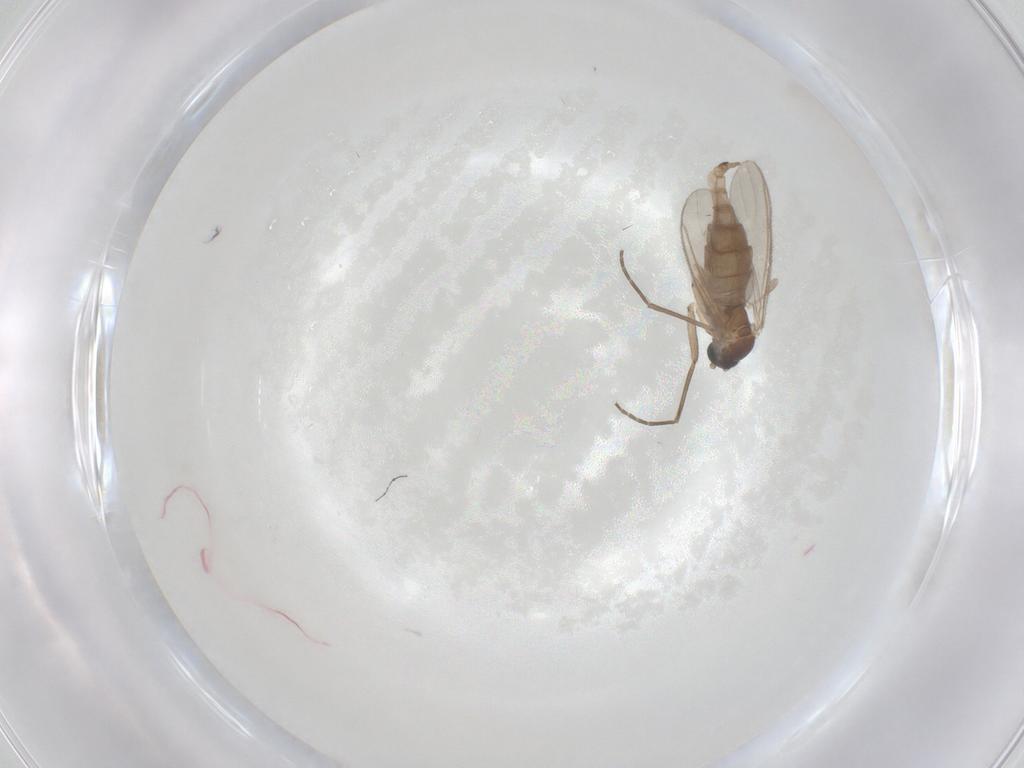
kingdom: Animalia
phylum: Arthropoda
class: Insecta
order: Diptera
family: Sciaridae
